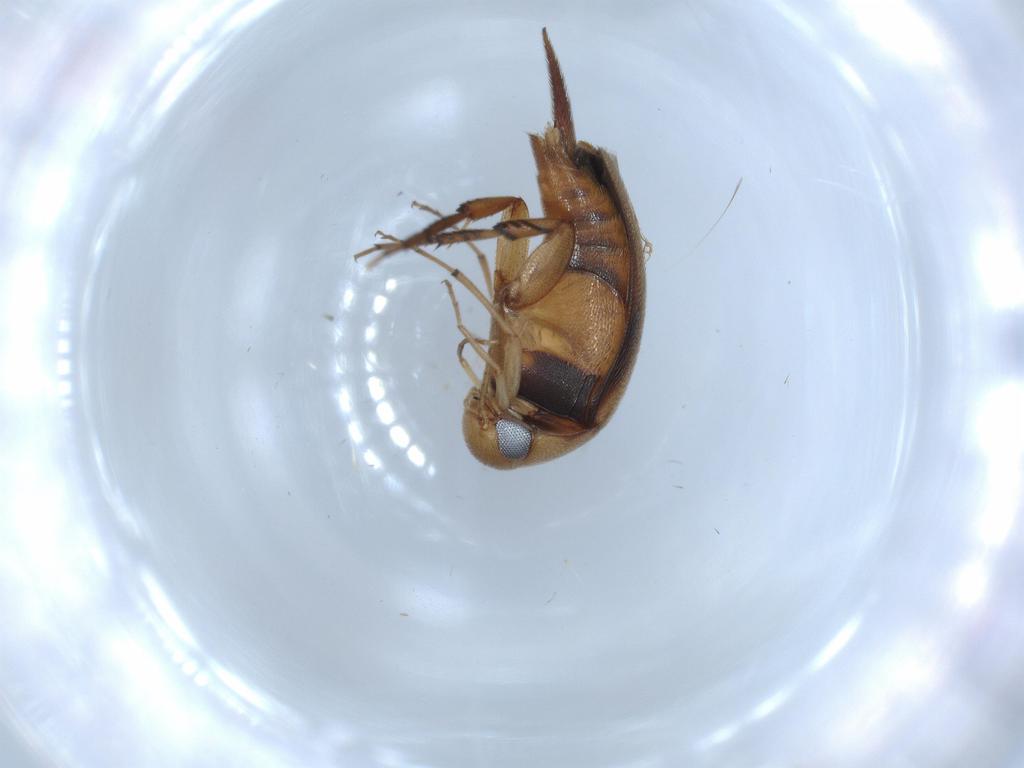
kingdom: Animalia
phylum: Arthropoda
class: Insecta
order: Coleoptera
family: Mordellidae
